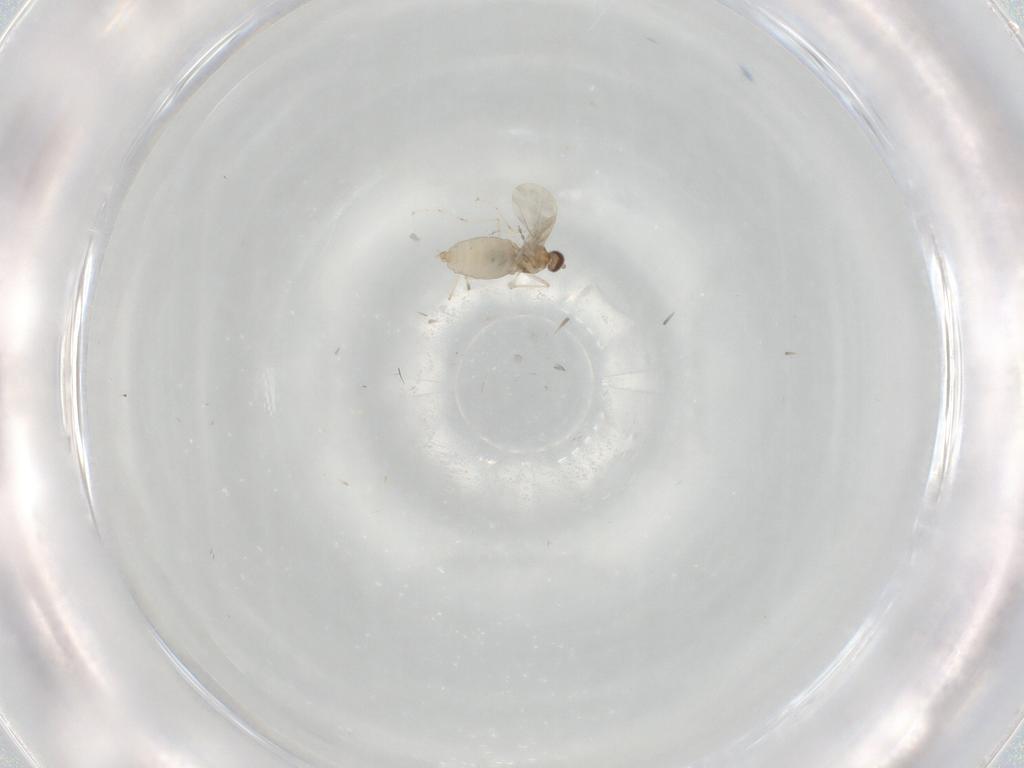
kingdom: Animalia
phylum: Arthropoda
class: Insecta
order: Diptera
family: Cecidomyiidae
